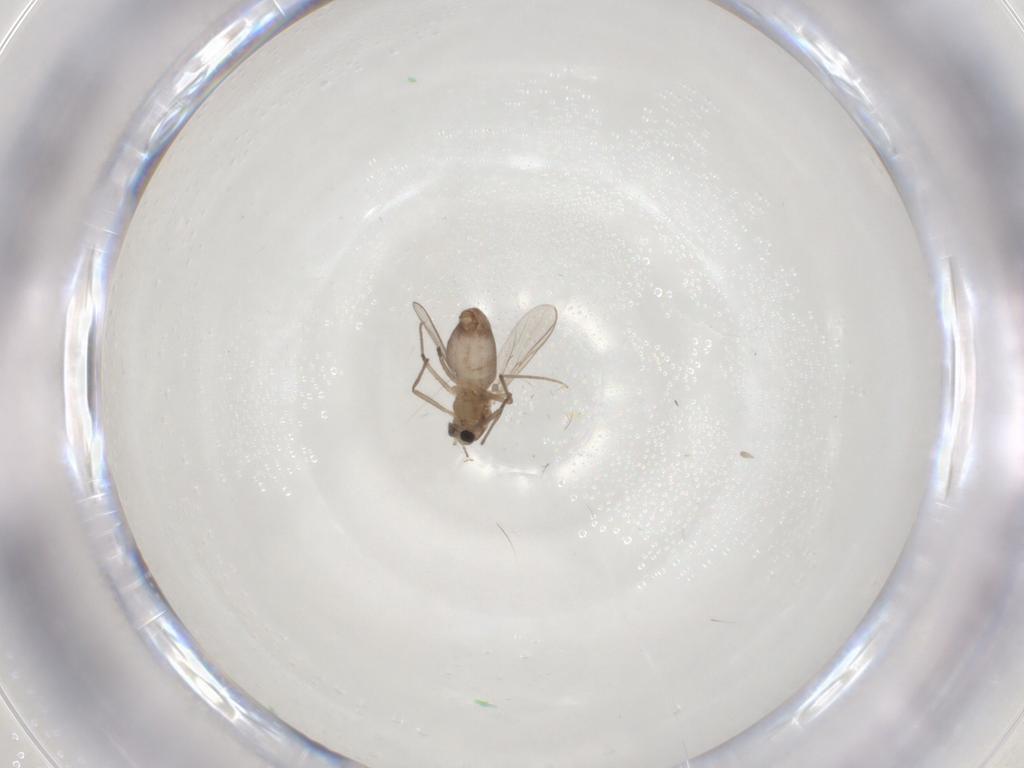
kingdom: Animalia
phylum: Arthropoda
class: Insecta
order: Diptera
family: Chironomidae
